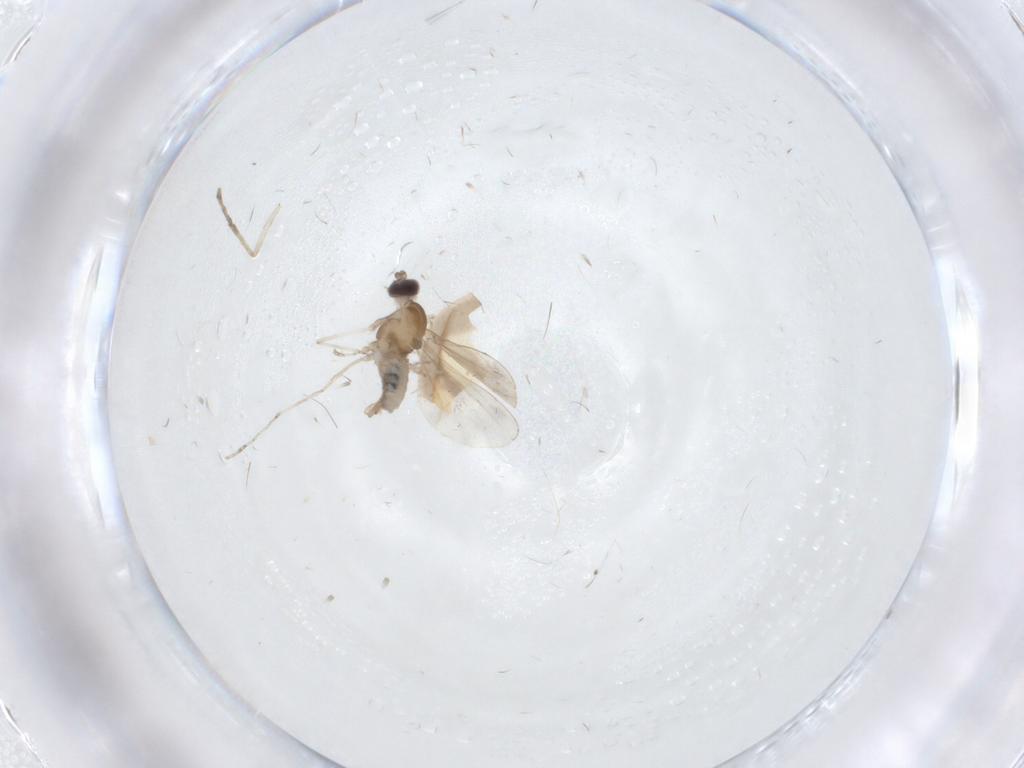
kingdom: Animalia
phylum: Arthropoda
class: Insecta
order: Diptera
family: Psychodidae
